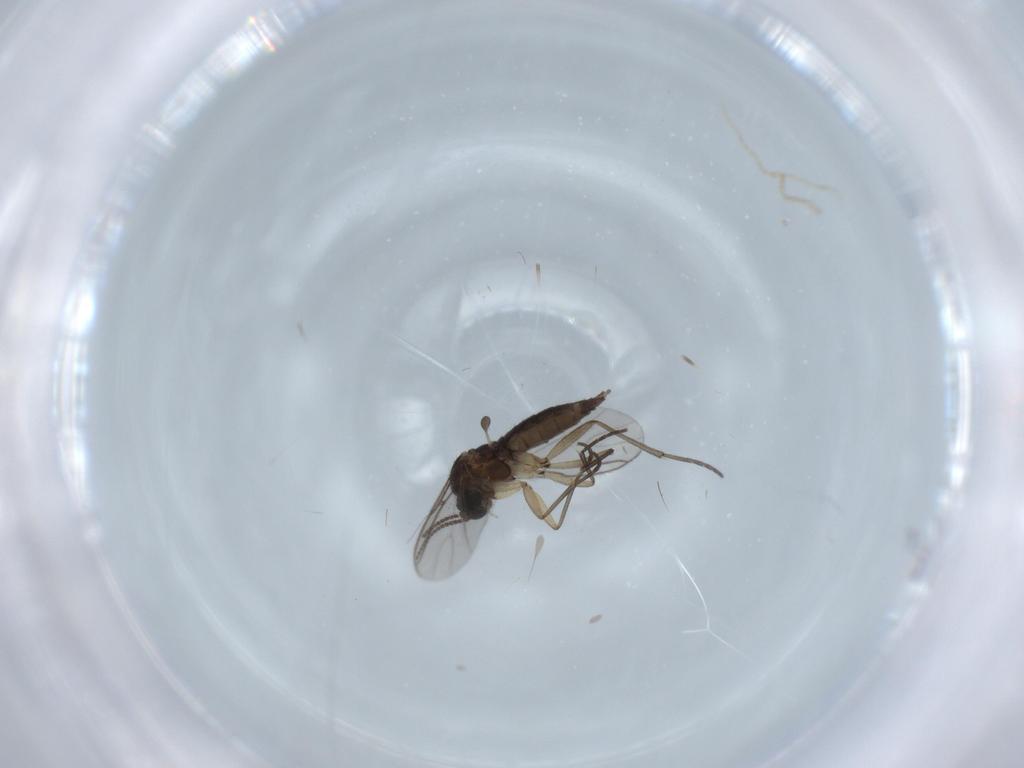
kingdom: Animalia
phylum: Arthropoda
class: Insecta
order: Diptera
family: Sciaridae
